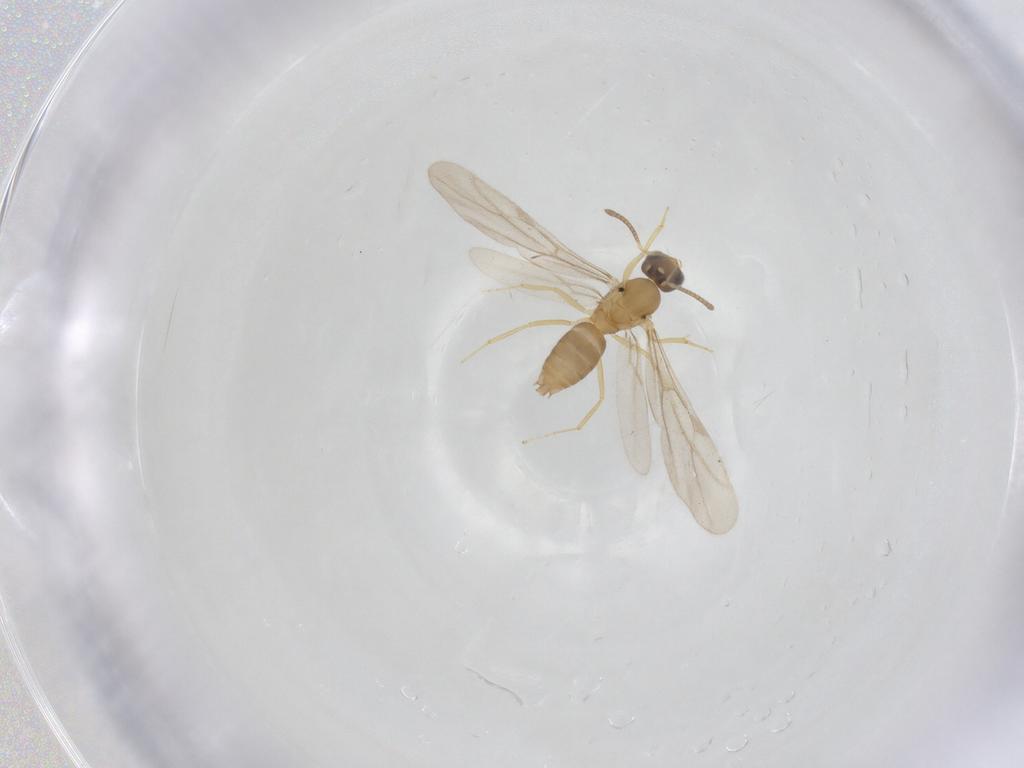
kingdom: Animalia
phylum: Arthropoda
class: Insecta
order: Hymenoptera
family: Formicidae
